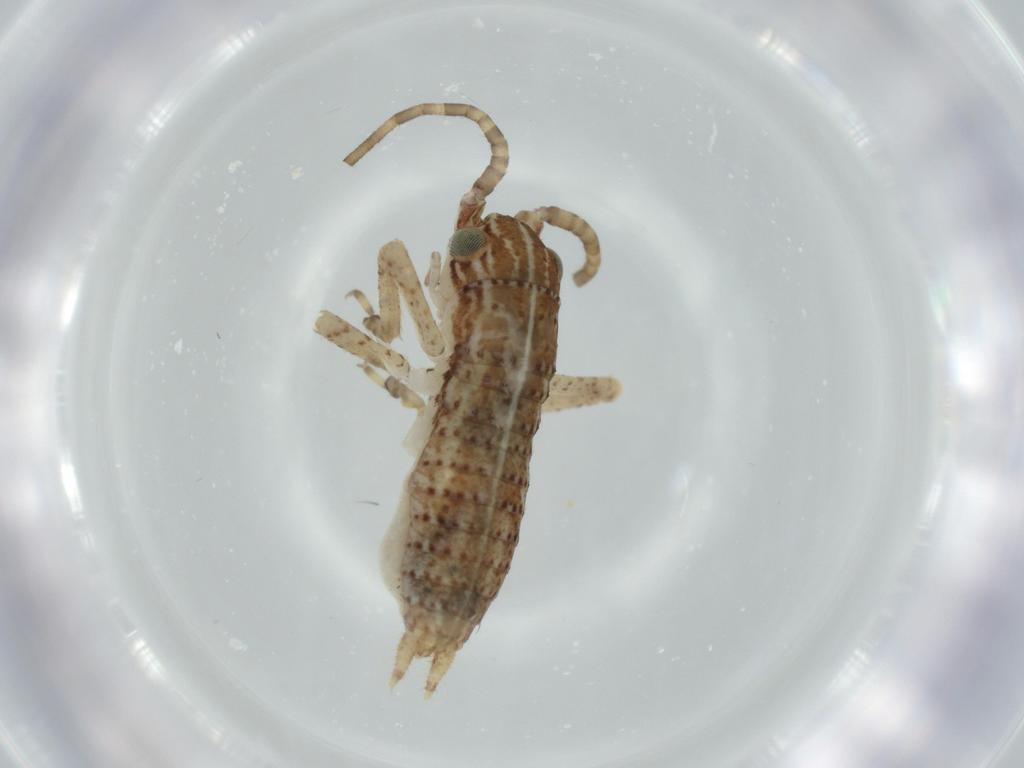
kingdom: Animalia
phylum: Arthropoda
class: Insecta
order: Orthoptera
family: Gryllidae
